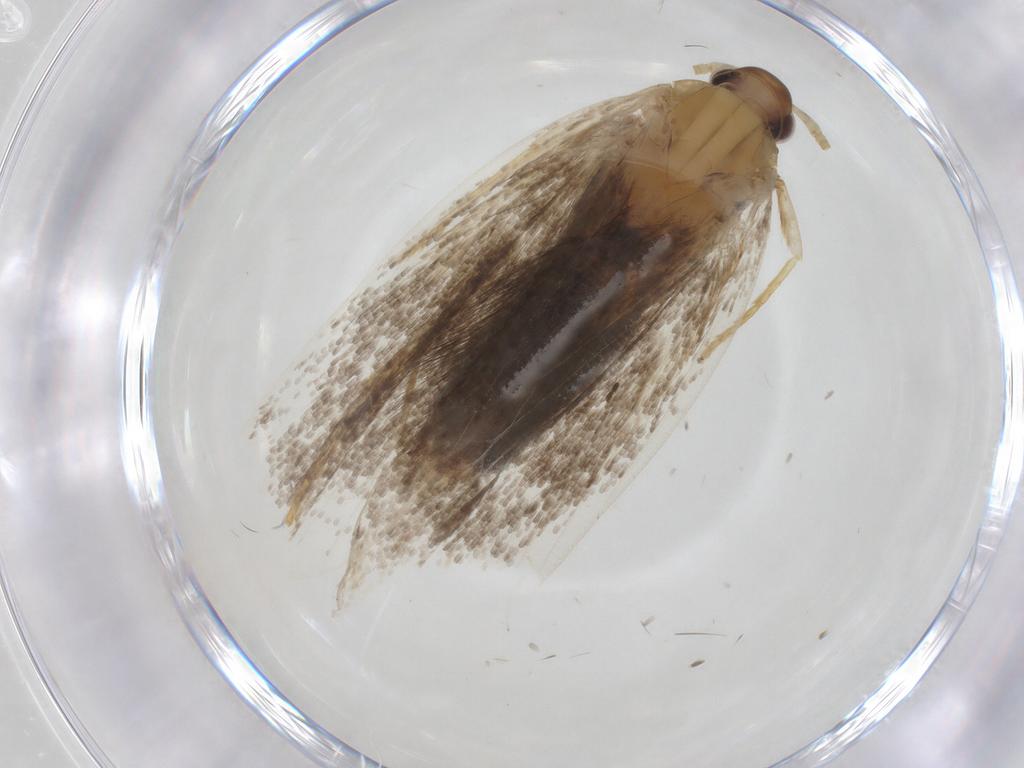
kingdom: Animalia
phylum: Arthropoda
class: Insecta
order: Lepidoptera
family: Lecithoceridae
